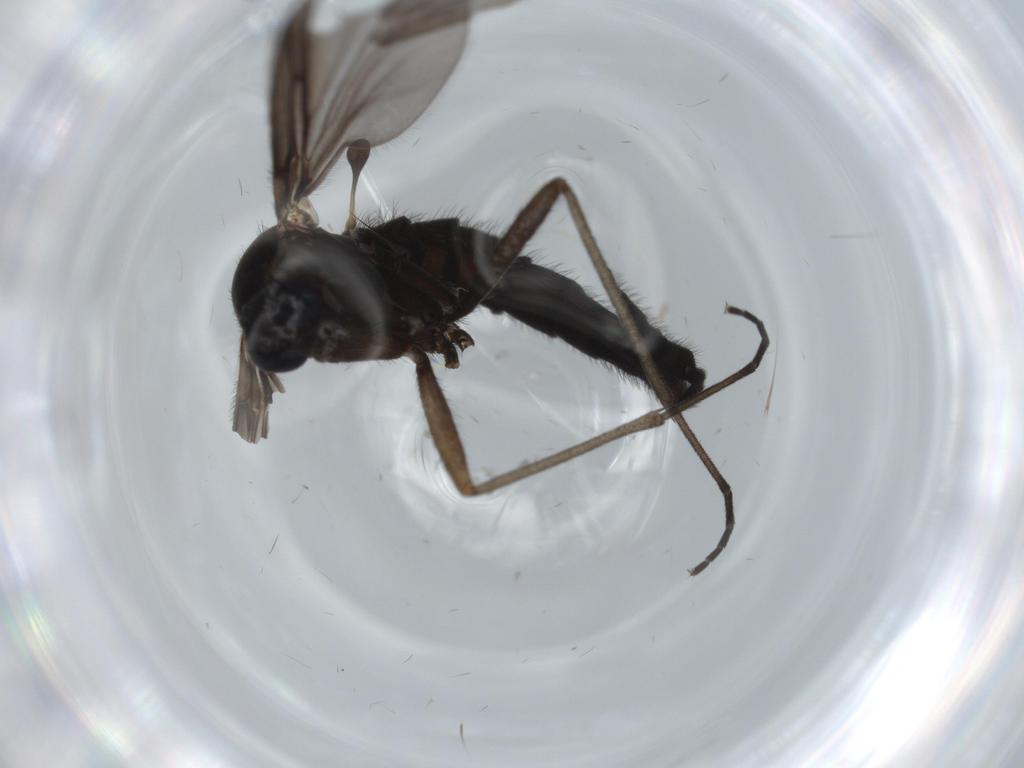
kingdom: Animalia
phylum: Arthropoda
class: Insecta
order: Diptera
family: Sciaridae
